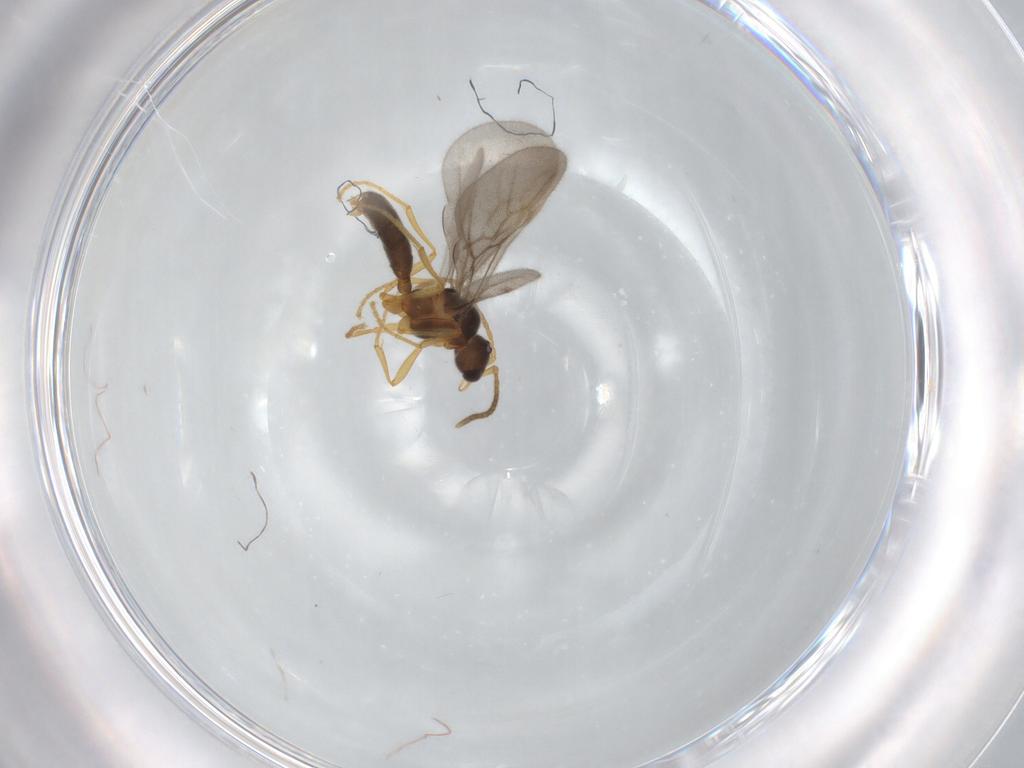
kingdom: Animalia
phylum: Arthropoda
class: Insecta
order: Hymenoptera
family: Formicidae
